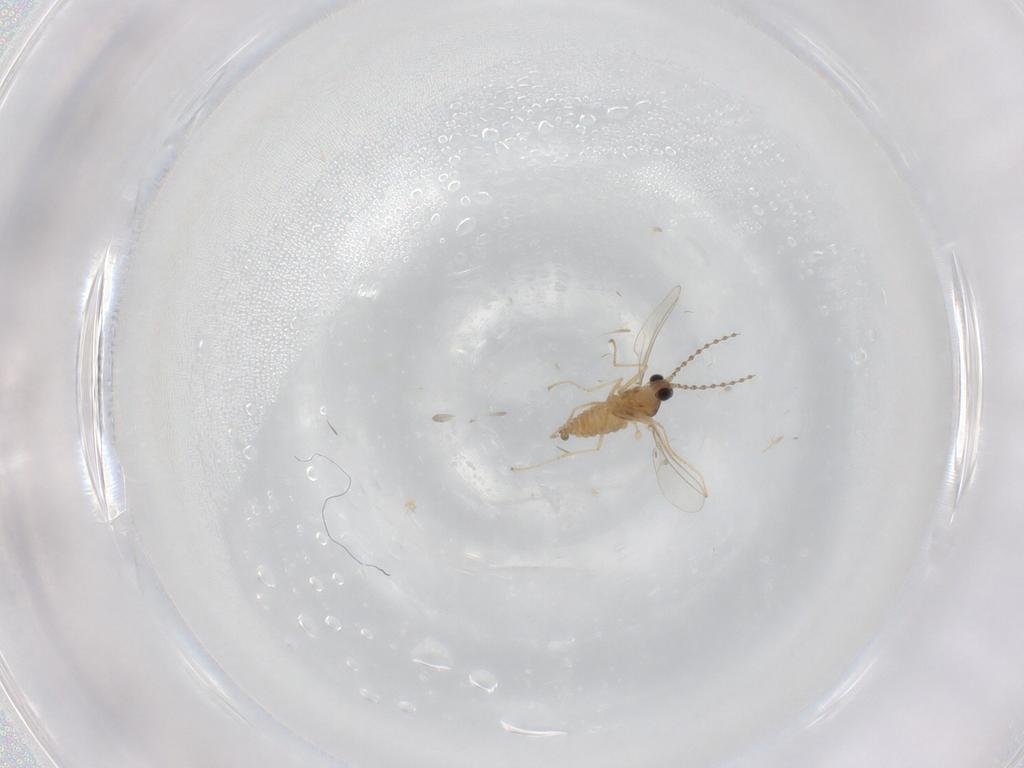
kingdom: Animalia
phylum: Arthropoda
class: Insecta
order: Diptera
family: Cecidomyiidae
